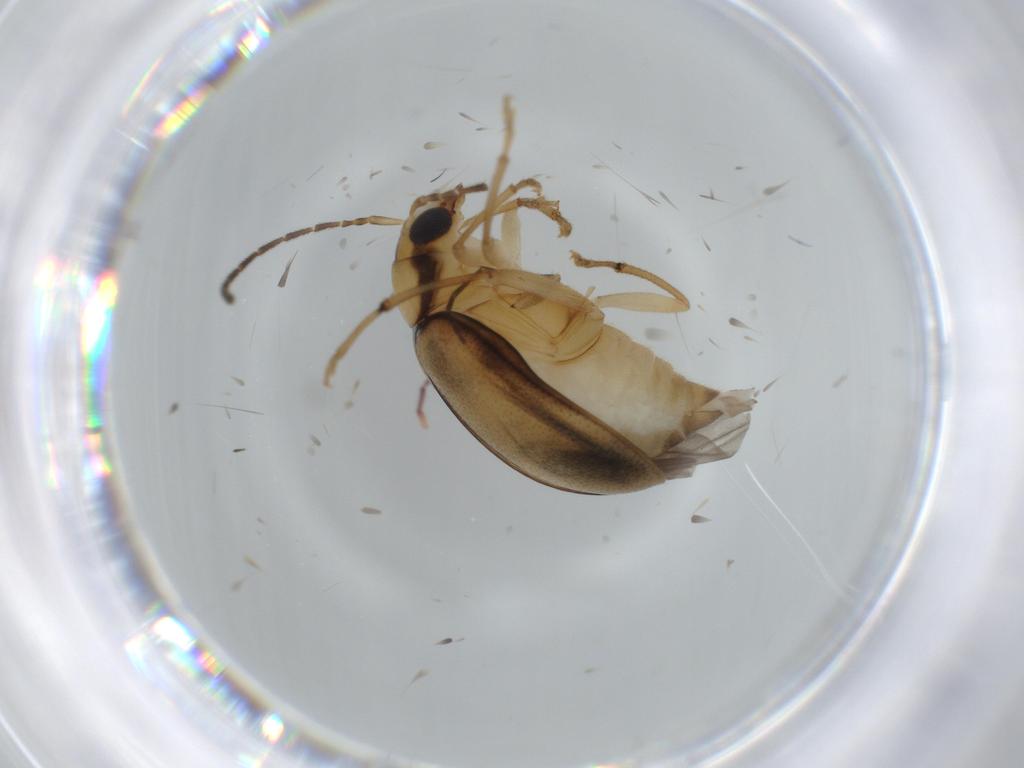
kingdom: Animalia
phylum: Arthropoda
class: Insecta
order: Coleoptera
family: Chrysomelidae
